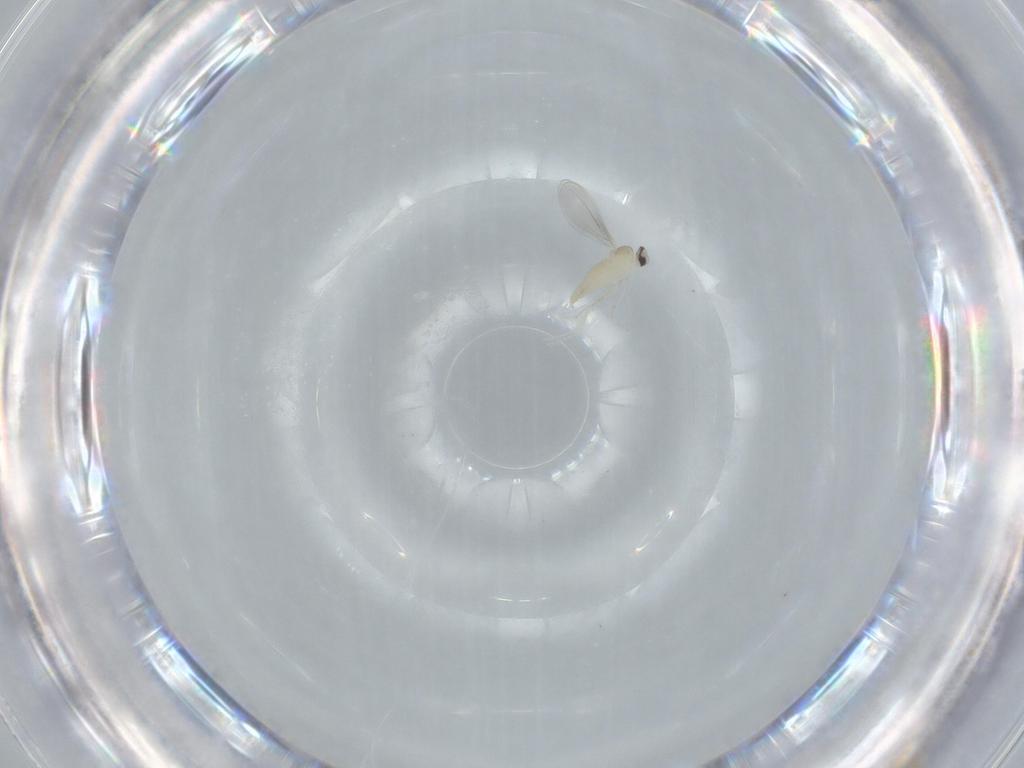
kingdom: Animalia
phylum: Arthropoda
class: Insecta
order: Diptera
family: Cecidomyiidae
